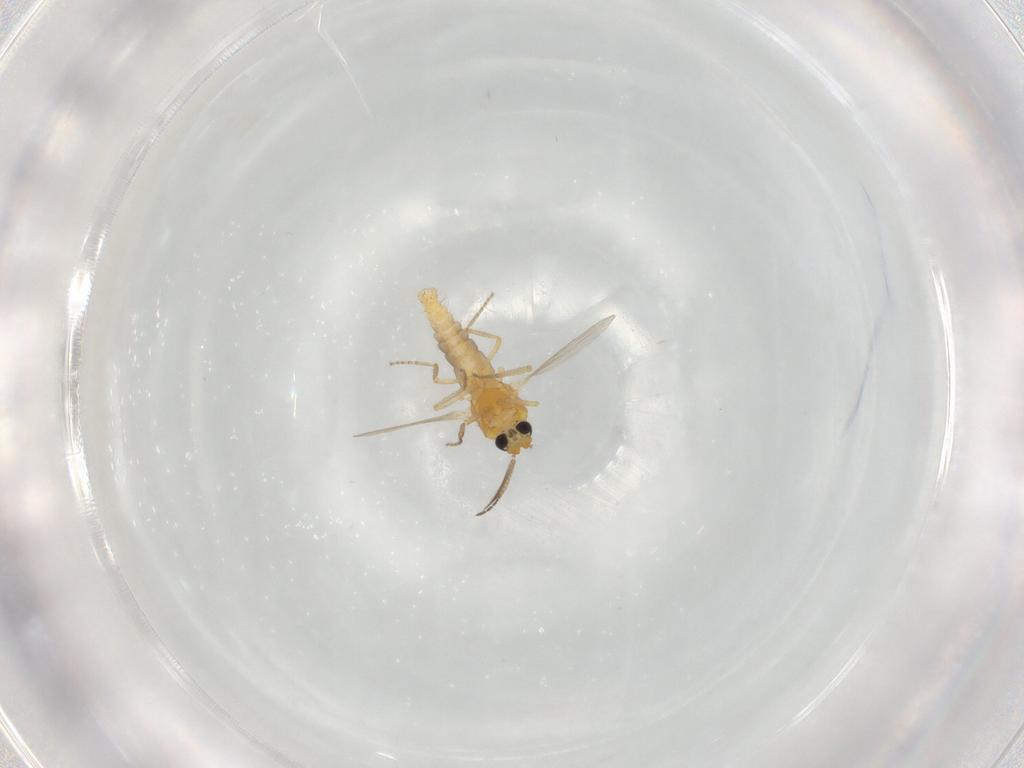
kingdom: Animalia
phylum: Arthropoda
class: Insecta
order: Diptera
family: Ceratopogonidae
